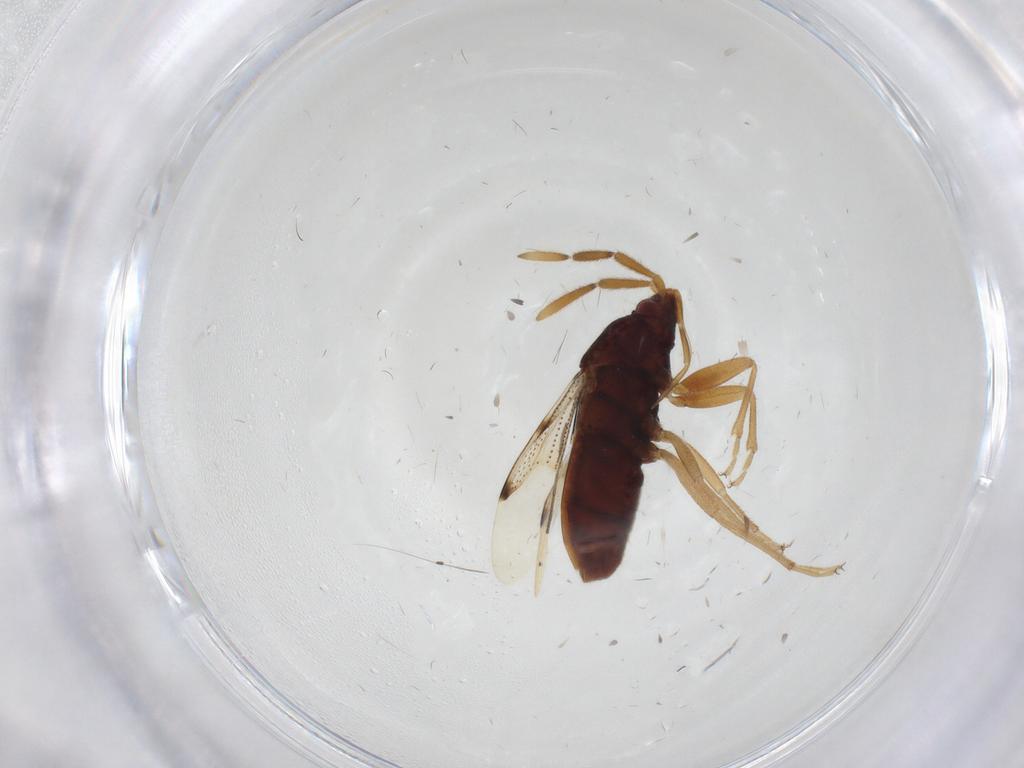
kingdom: Animalia
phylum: Arthropoda
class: Insecta
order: Hemiptera
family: Rhyparochromidae
